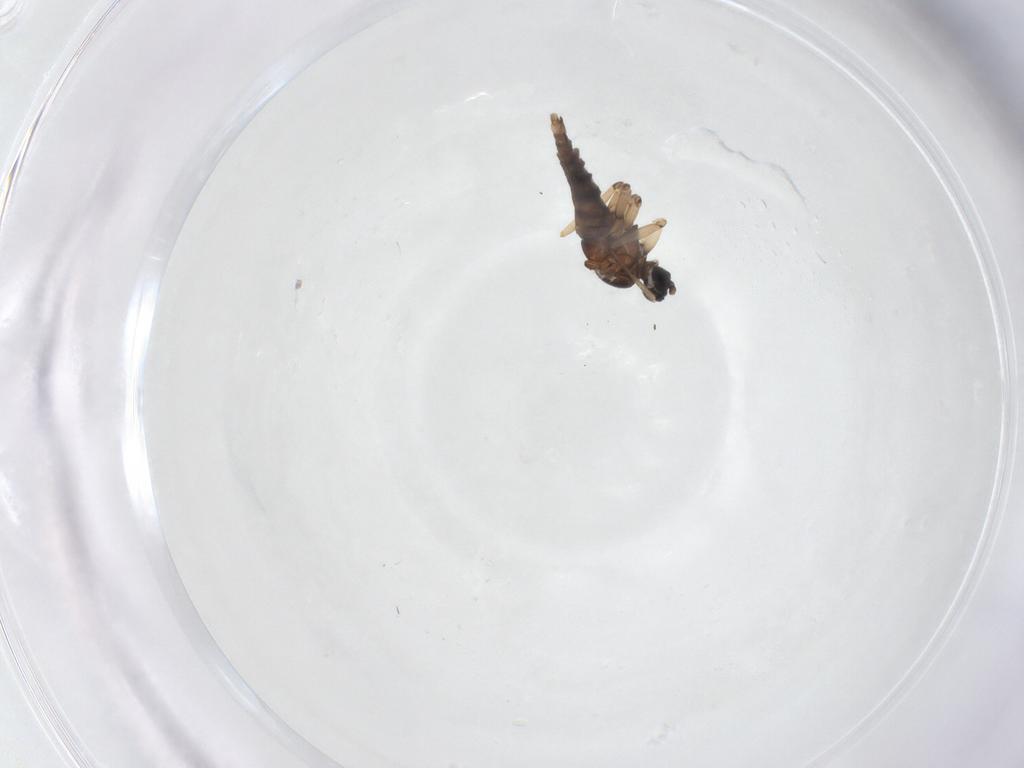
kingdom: Animalia
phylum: Arthropoda
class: Insecta
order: Diptera
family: Sciaridae
